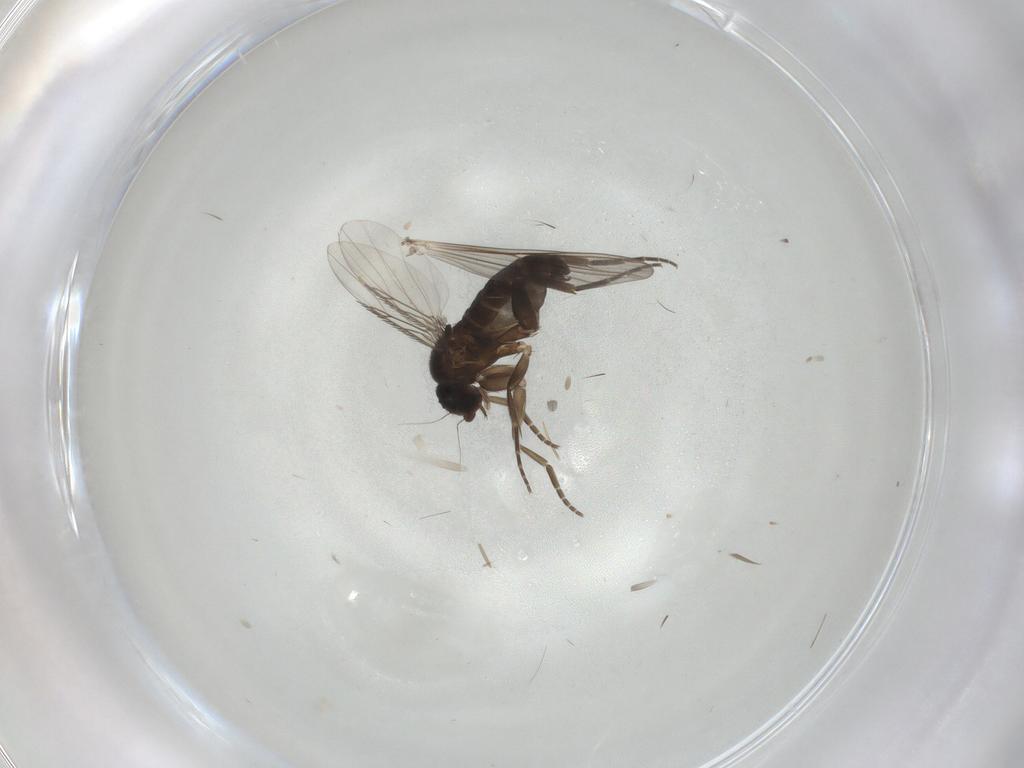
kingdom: Animalia
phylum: Arthropoda
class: Insecta
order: Diptera
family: Phoridae
